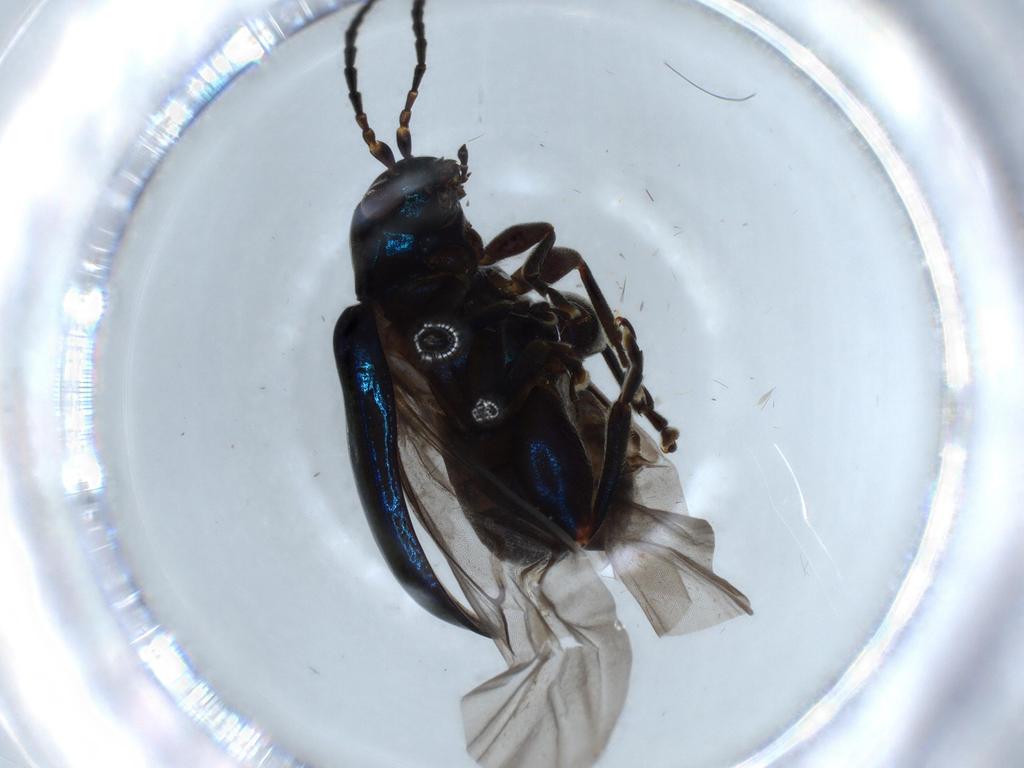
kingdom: Animalia
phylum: Arthropoda
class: Insecta
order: Coleoptera
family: Chrysomelidae
